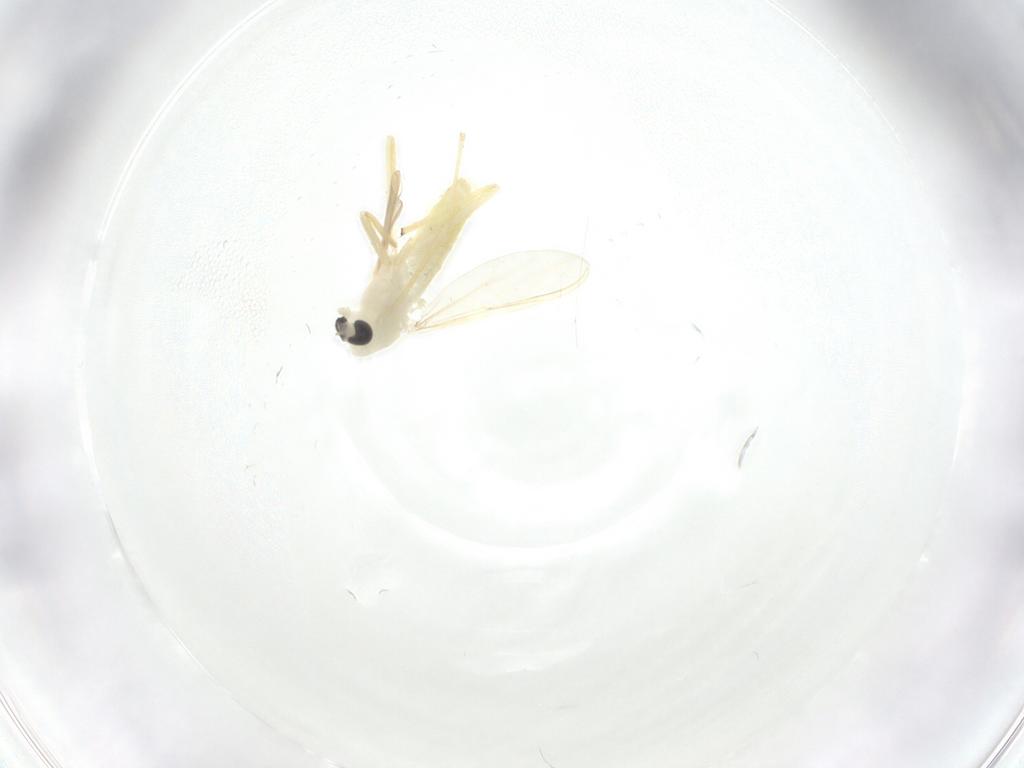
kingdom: Animalia
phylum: Arthropoda
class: Insecta
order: Diptera
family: Chironomidae
